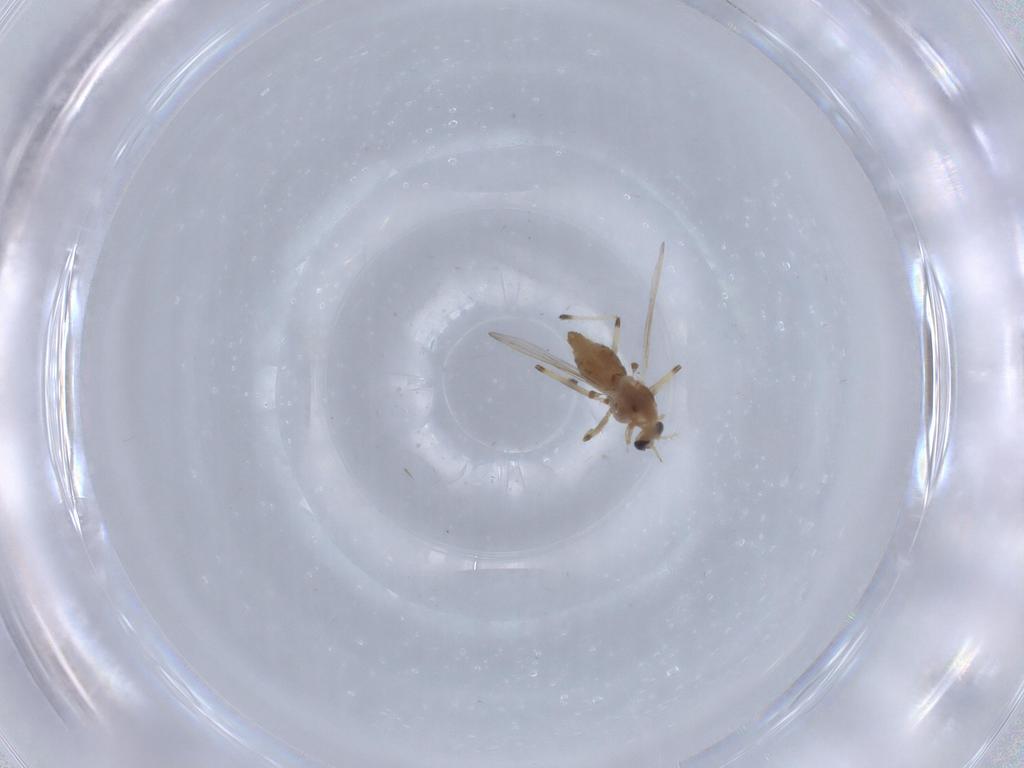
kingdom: Animalia
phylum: Arthropoda
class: Insecta
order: Diptera
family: Chironomidae
